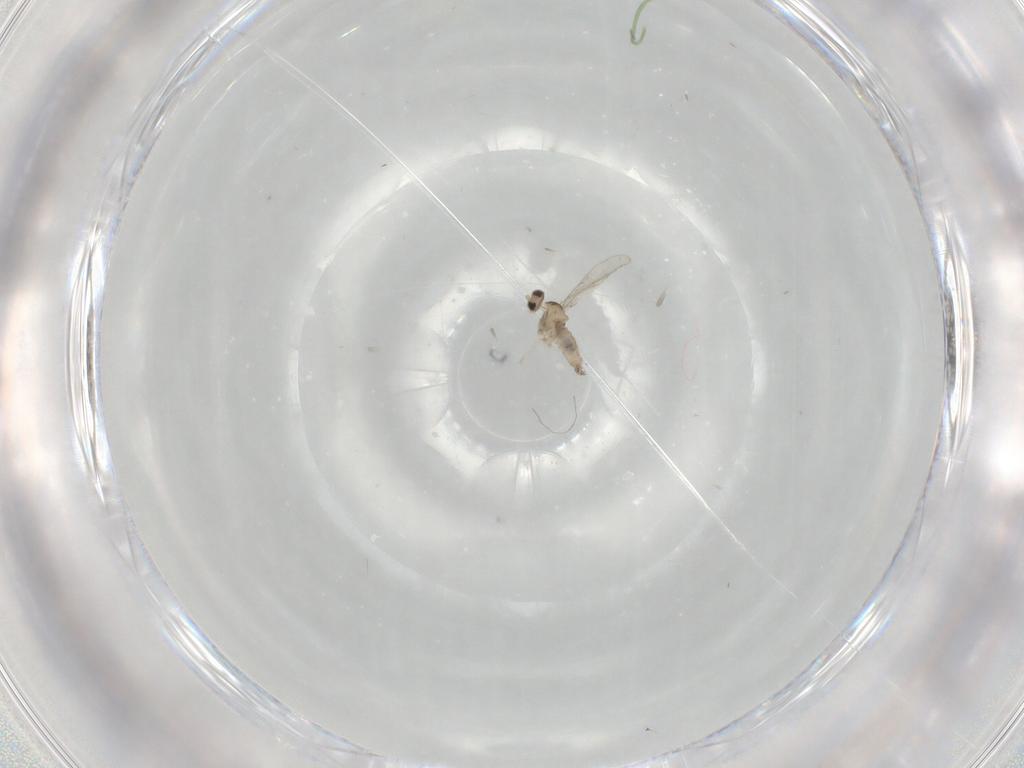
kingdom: Animalia
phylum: Arthropoda
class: Insecta
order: Diptera
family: Cecidomyiidae
